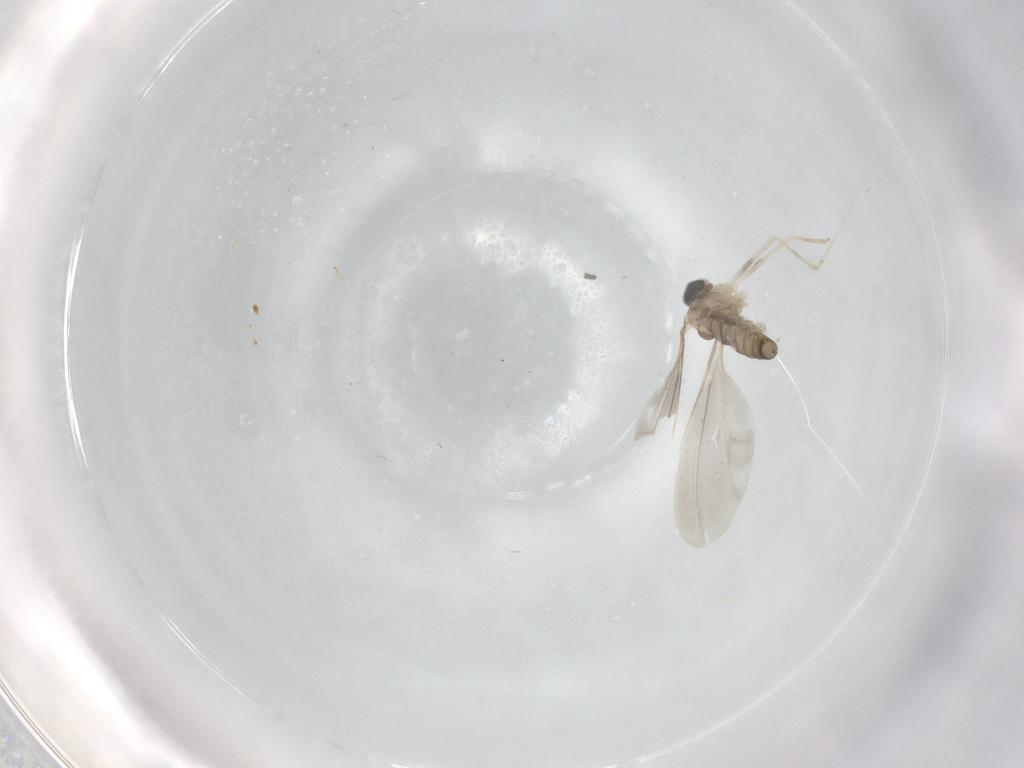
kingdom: Animalia
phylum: Arthropoda
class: Insecta
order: Diptera
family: Cecidomyiidae
